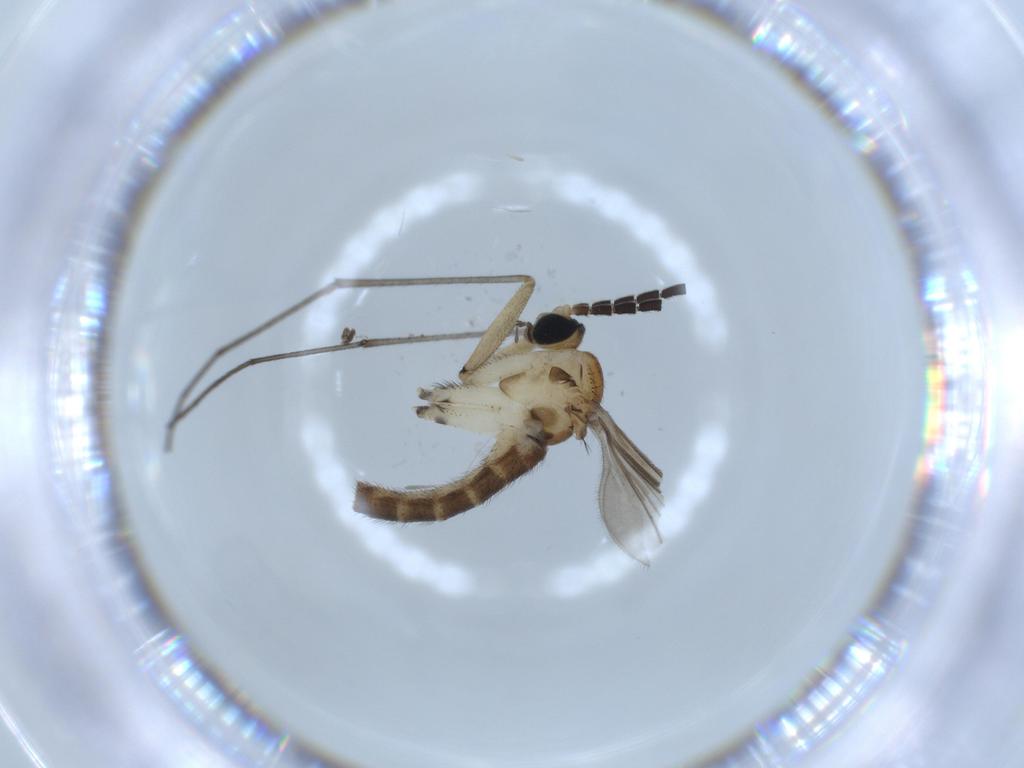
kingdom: Animalia
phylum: Arthropoda
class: Insecta
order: Diptera
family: Sciaridae
